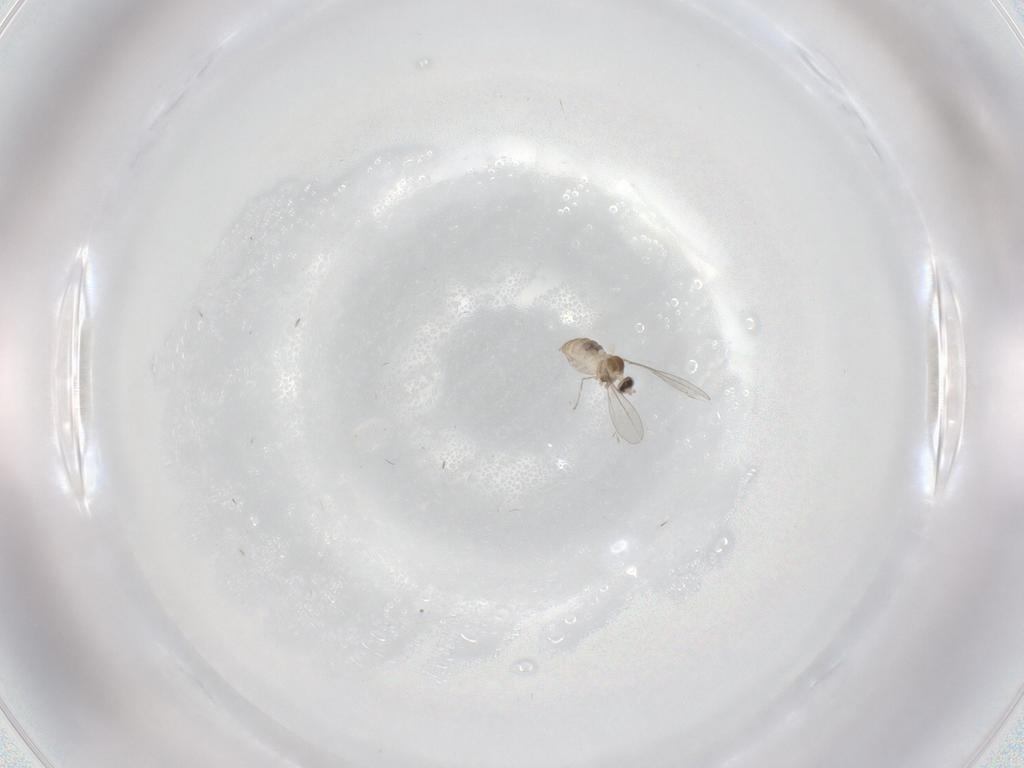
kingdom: Animalia
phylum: Arthropoda
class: Insecta
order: Diptera
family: Cecidomyiidae
